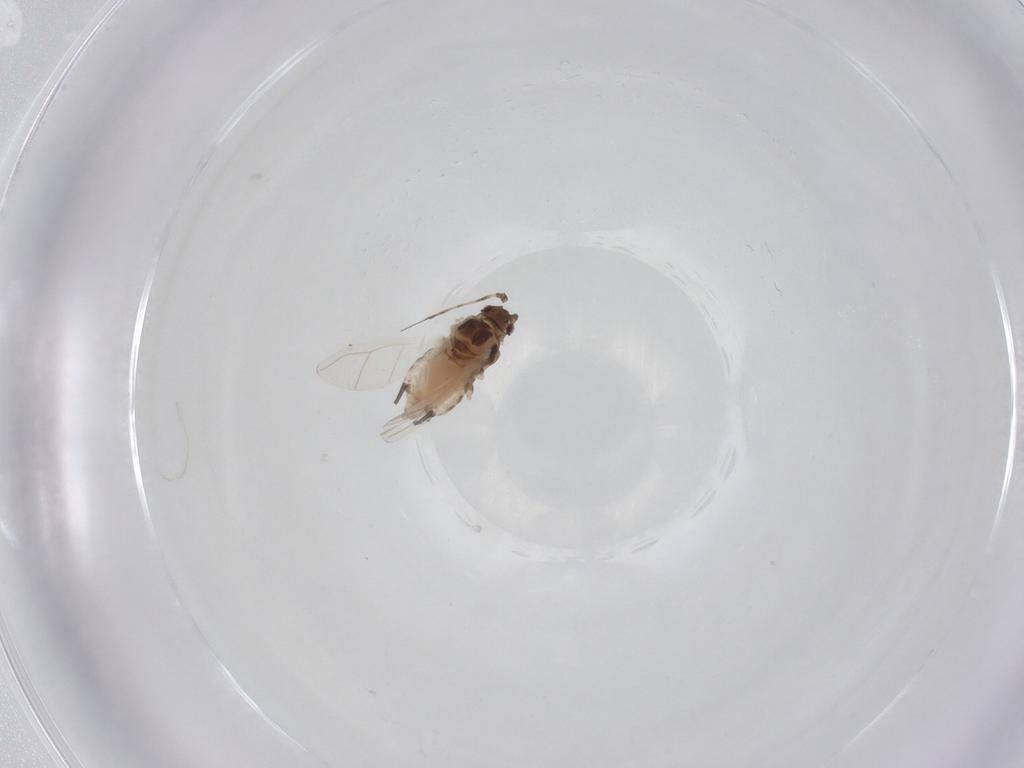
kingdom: Animalia
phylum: Arthropoda
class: Insecta
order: Hemiptera
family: Aphididae
